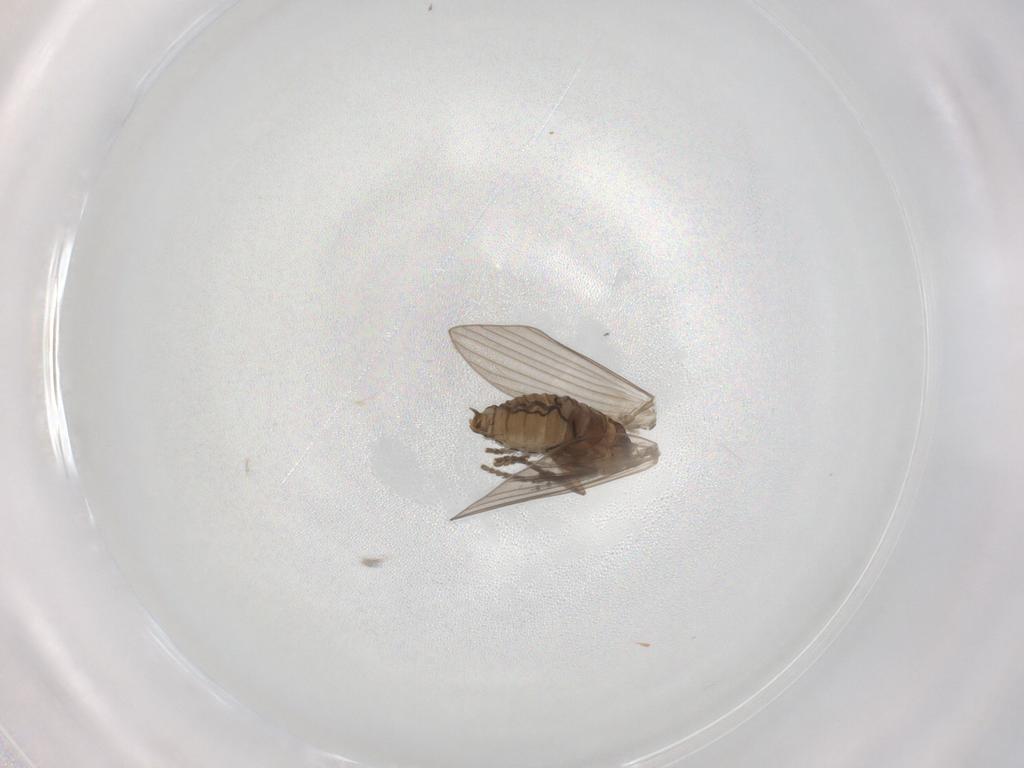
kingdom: Animalia
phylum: Arthropoda
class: Insecta
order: Diptera
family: Psychodidae
